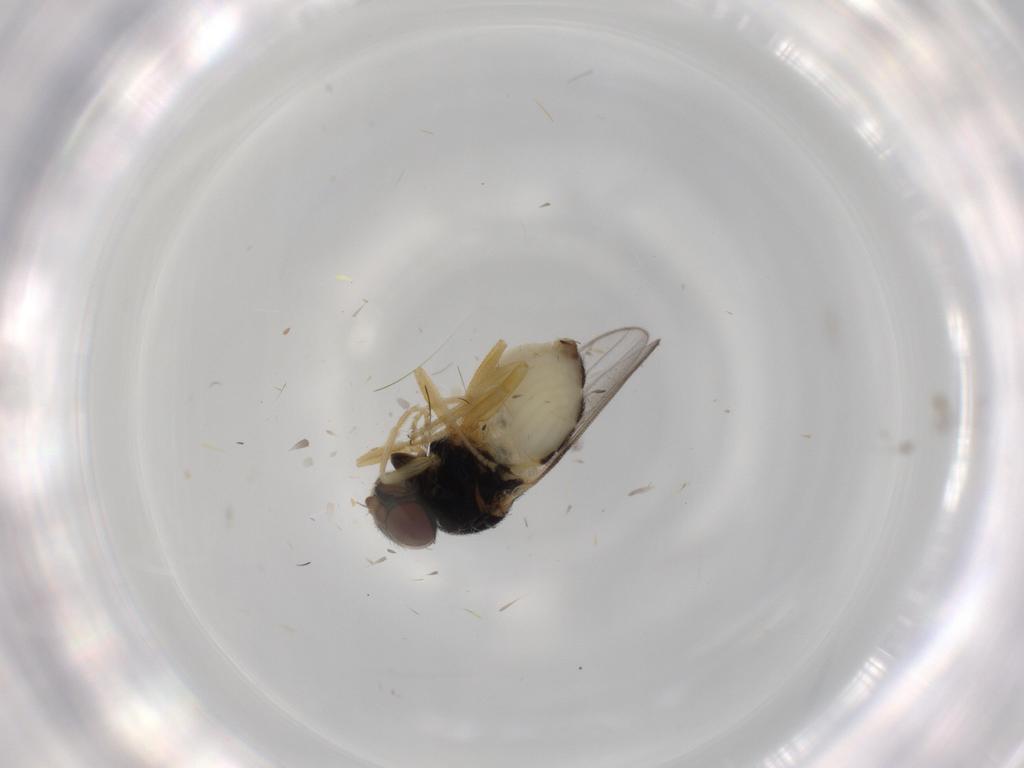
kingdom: Animalia
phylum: Arthropoda
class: Insecta
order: Diptera
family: Chloropidae
